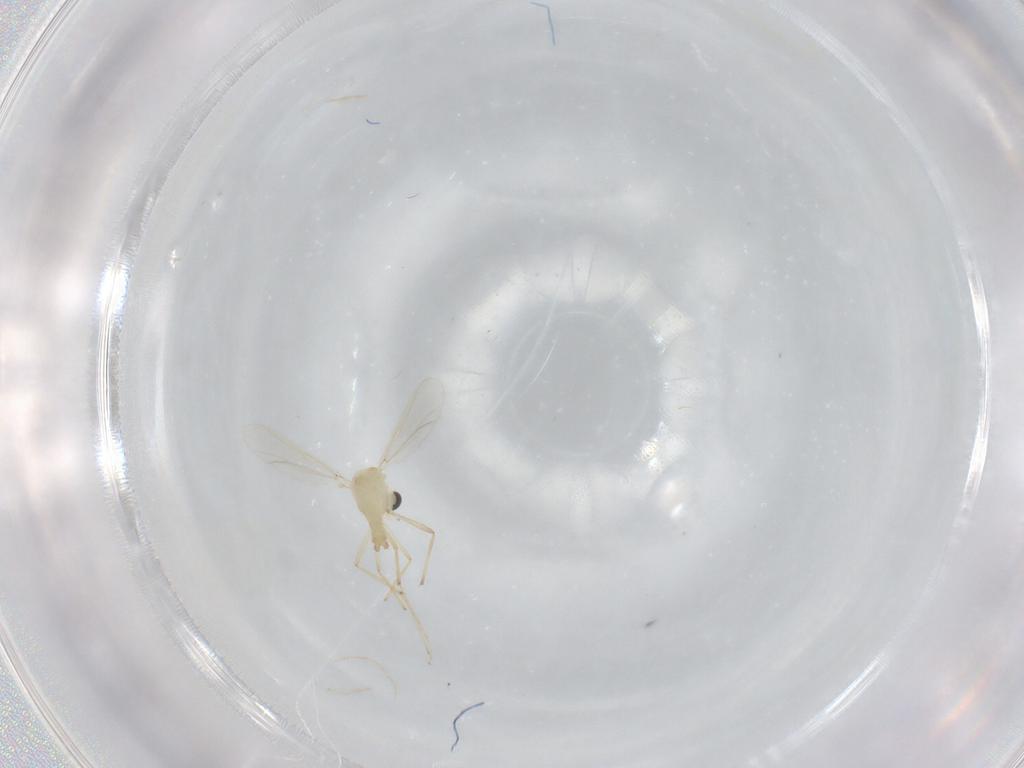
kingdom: Animalia
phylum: Arthropoda
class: Insecta
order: Diptera
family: Chironomidae
